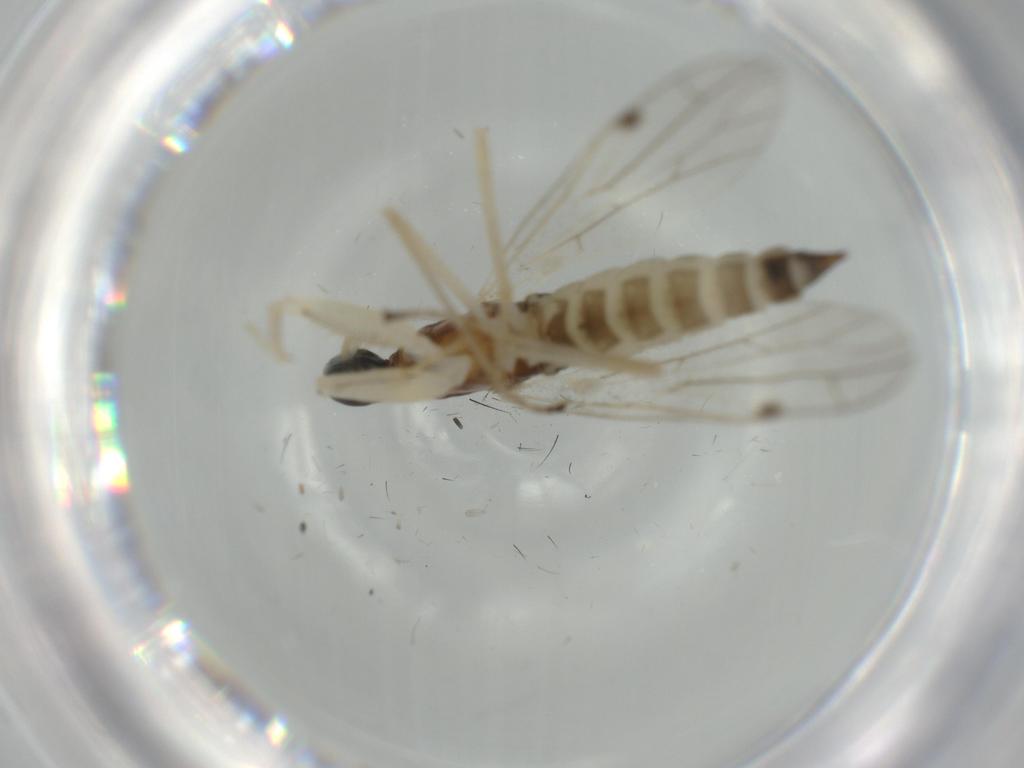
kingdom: Animalia
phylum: Arthropoda
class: Insecta
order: Diptera
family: Empididae
